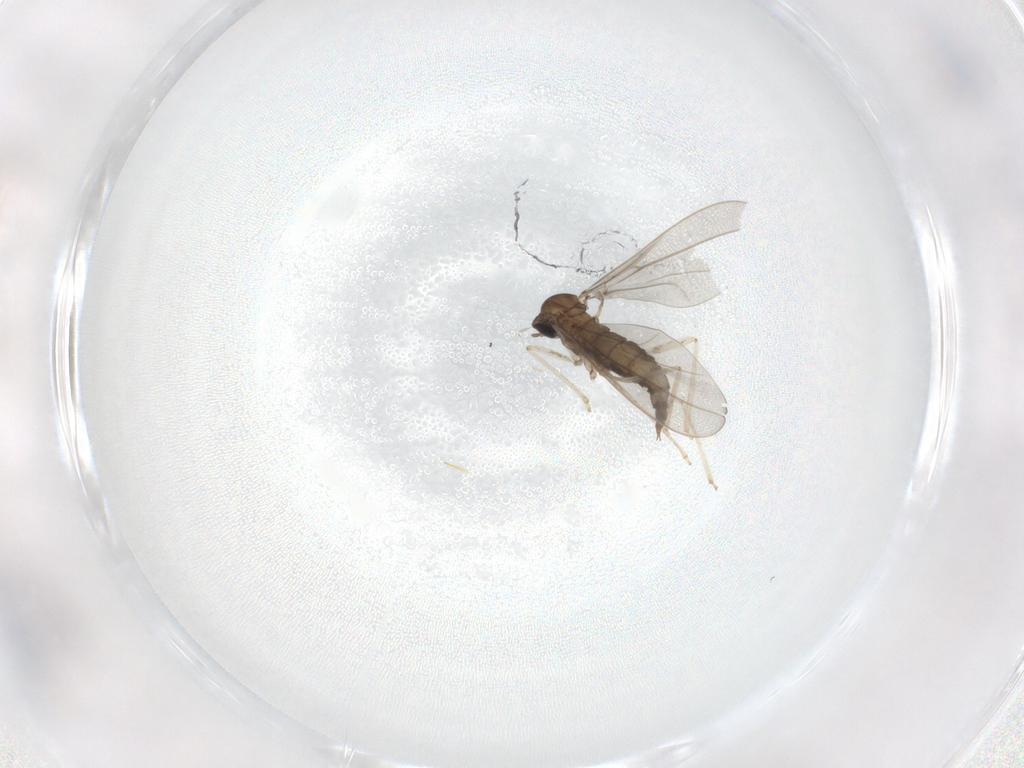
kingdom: Animalia
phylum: Arthropoda
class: Insecta
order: Diptera
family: Cecidomyiidae
